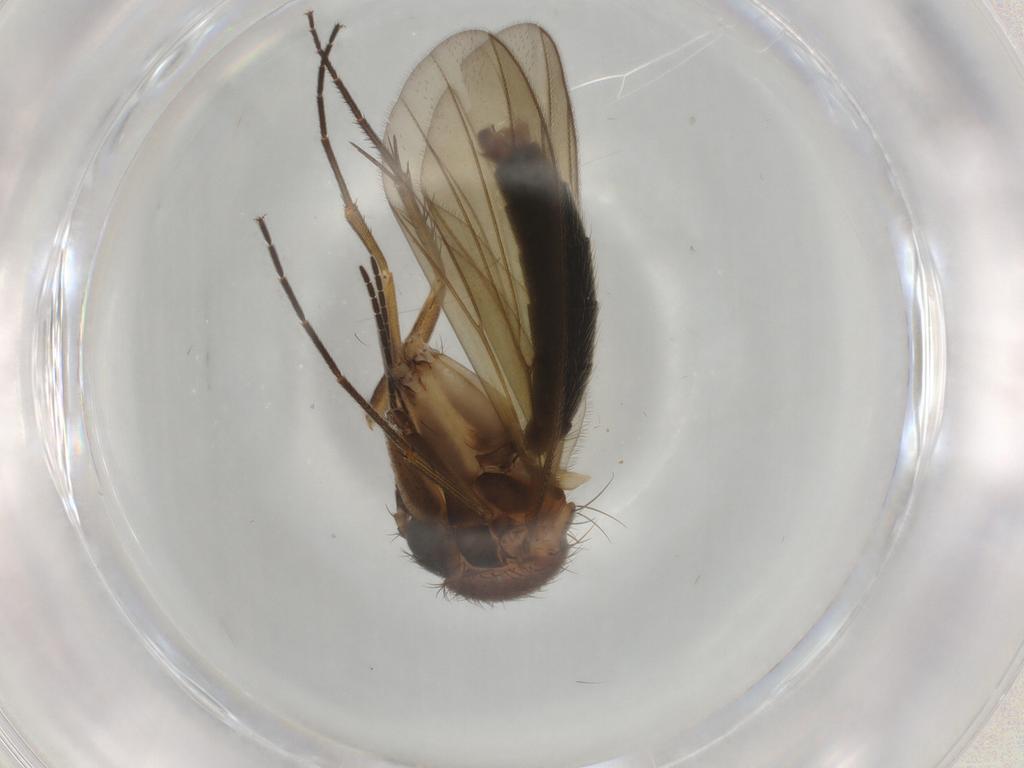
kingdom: Animalia
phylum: Arthropoda
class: Insecta
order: Diptera
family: Mycetophilidae
